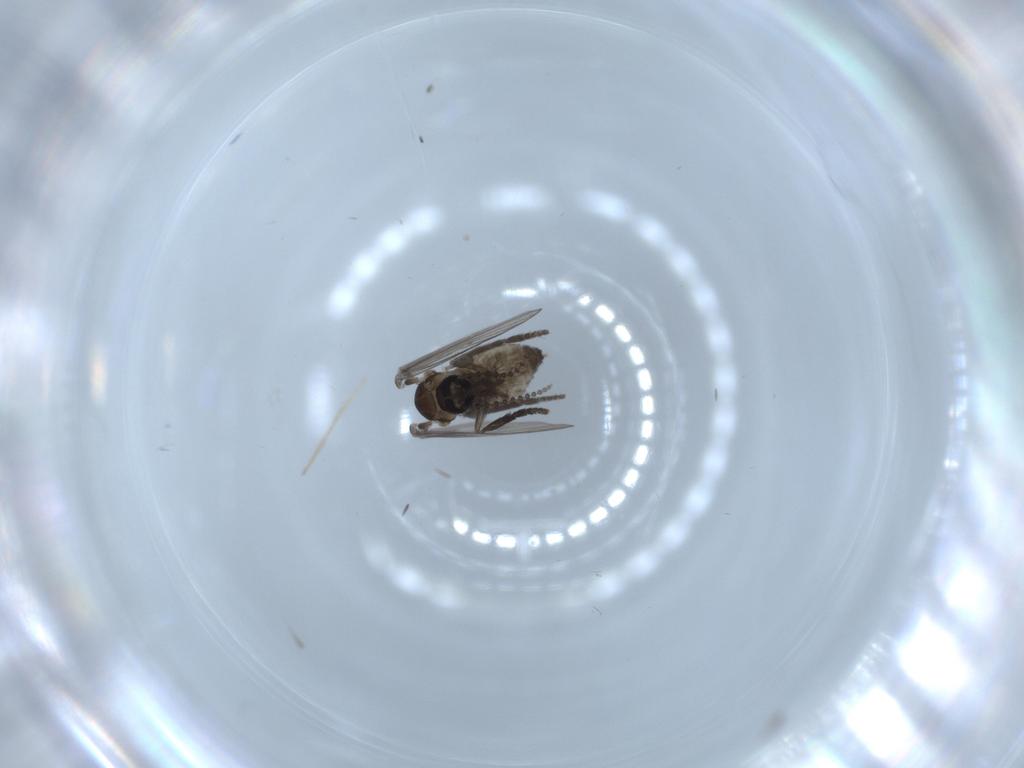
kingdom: Animalia
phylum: Arthropoda
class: Insecta
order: Diptera
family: Psychodidae
